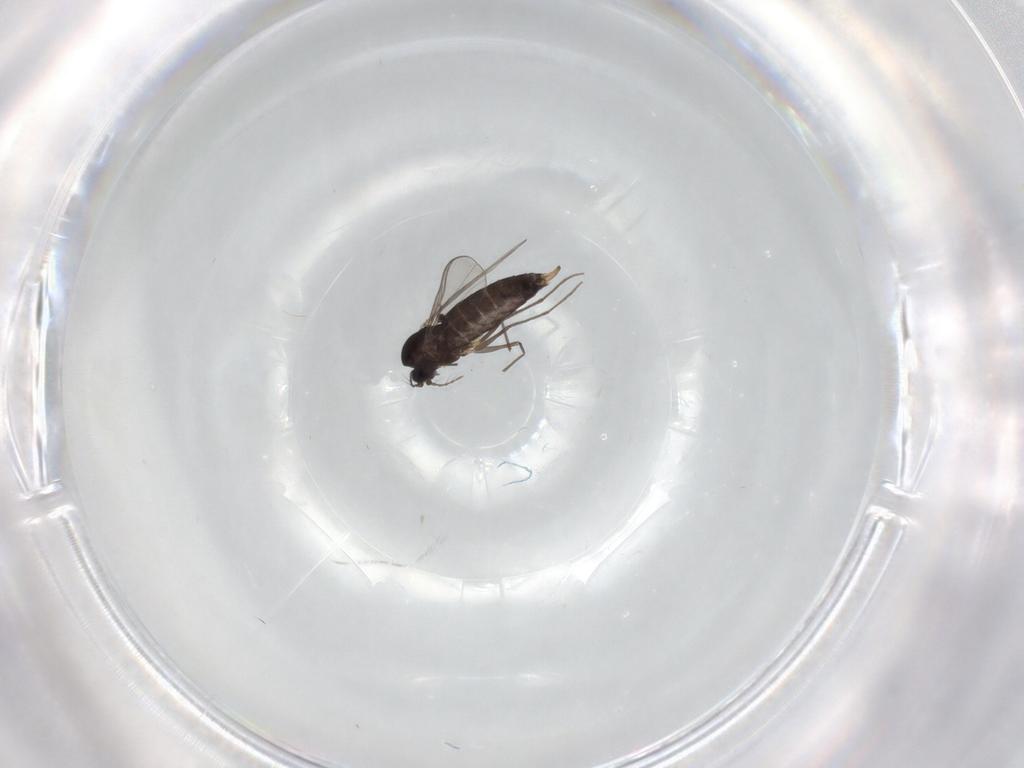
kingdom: Animalia
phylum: Arthropoda
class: Insecta
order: Diptera
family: Chironomidae
